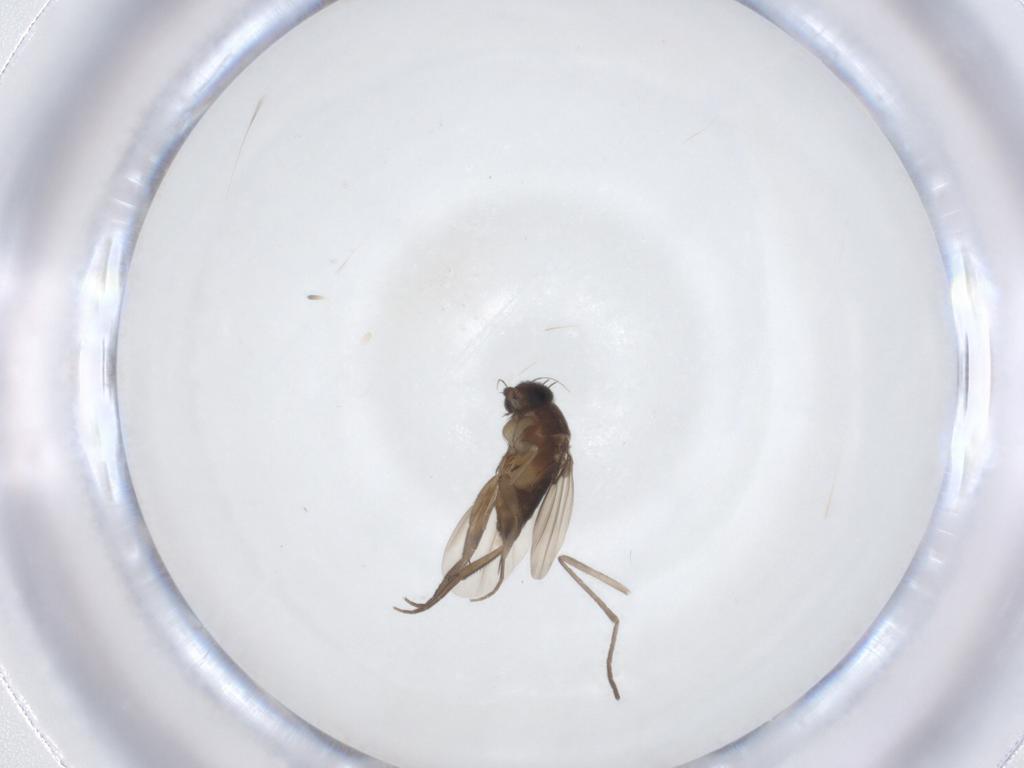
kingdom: Animalia
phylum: Arthropoda
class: Insecta
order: Diptera
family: Phoridae
